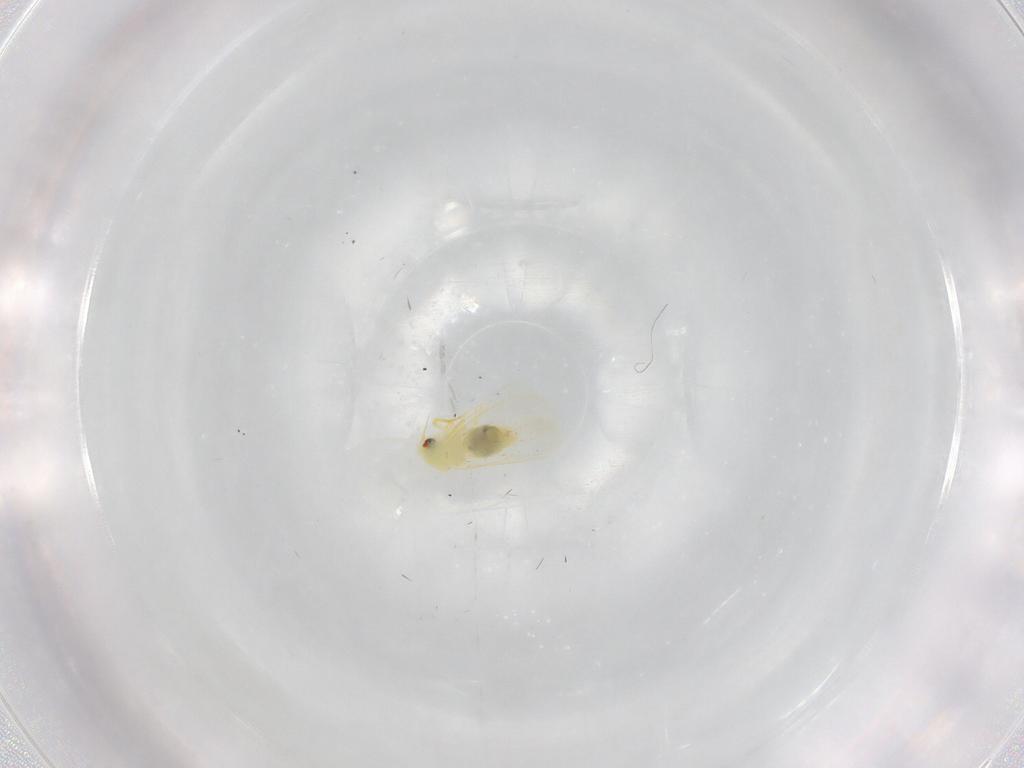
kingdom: Animalia
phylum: Arthropoda
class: Insecta
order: Hemiptera
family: Aleyrodidae
